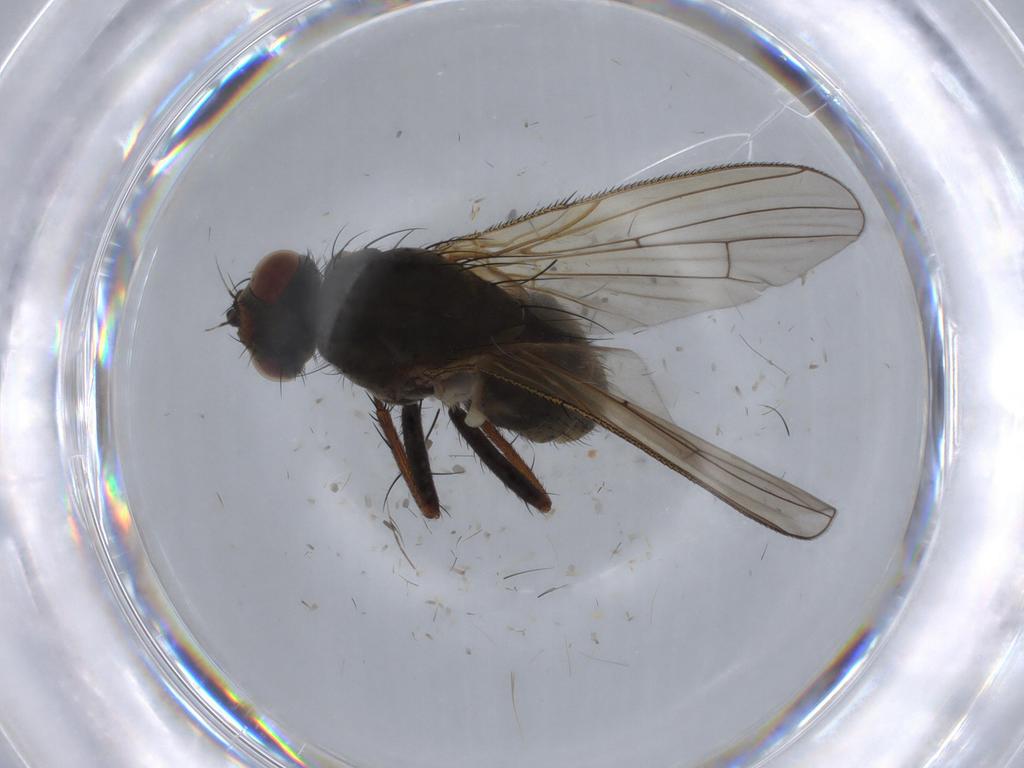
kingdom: Animalia
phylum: Arthropoda
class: Insecta
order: Diptera
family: Anthomyiidae
